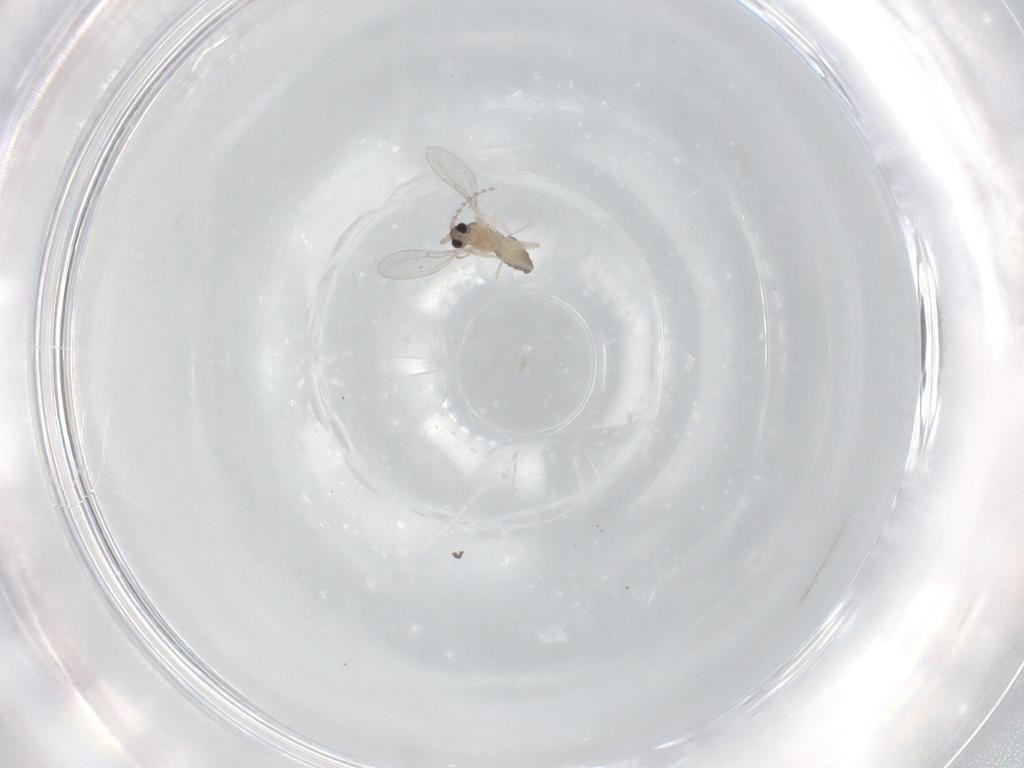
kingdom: Animalia
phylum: Arthropoda
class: Insecta
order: Diptera
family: Cecidomyiidae
